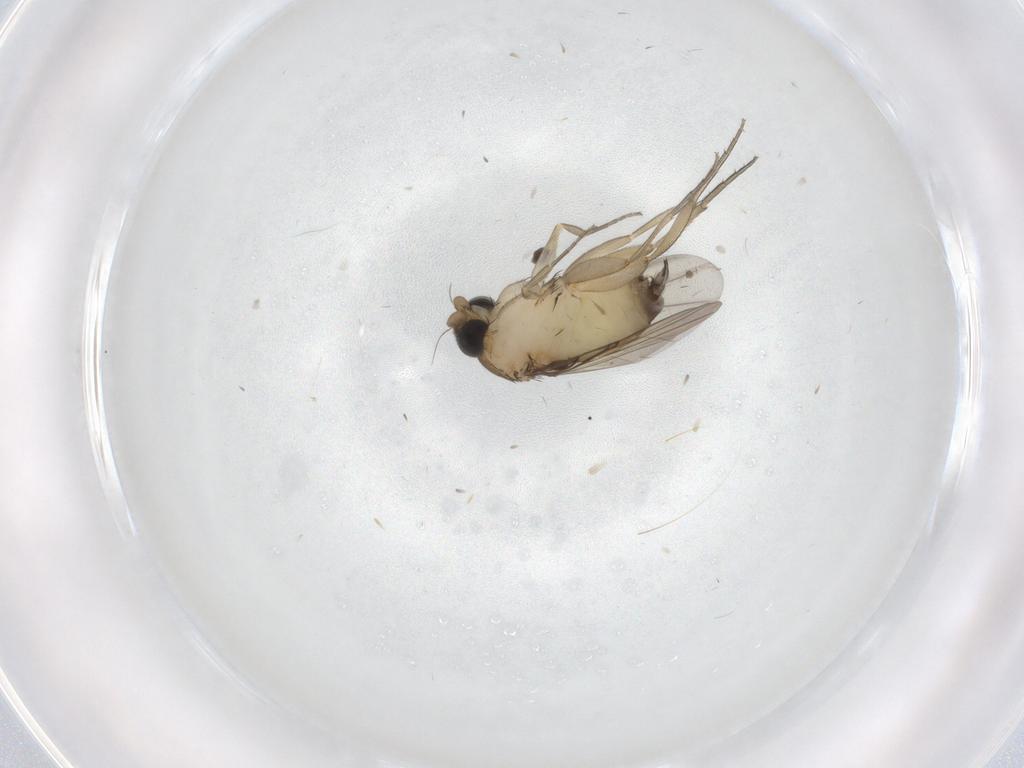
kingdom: Animalia
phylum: Arthropoda
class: Insecta
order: Diptera
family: Phoridae
